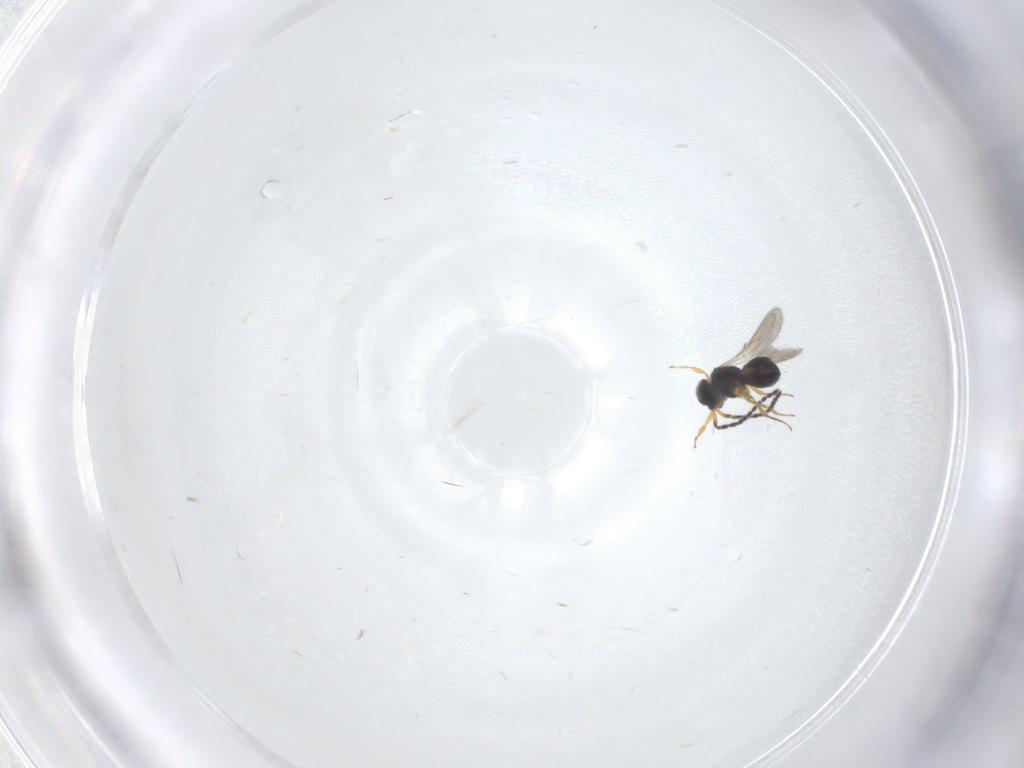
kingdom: Animalia
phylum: Arthropoda
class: Insecta
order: Hymenoptera
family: Scelionidae
